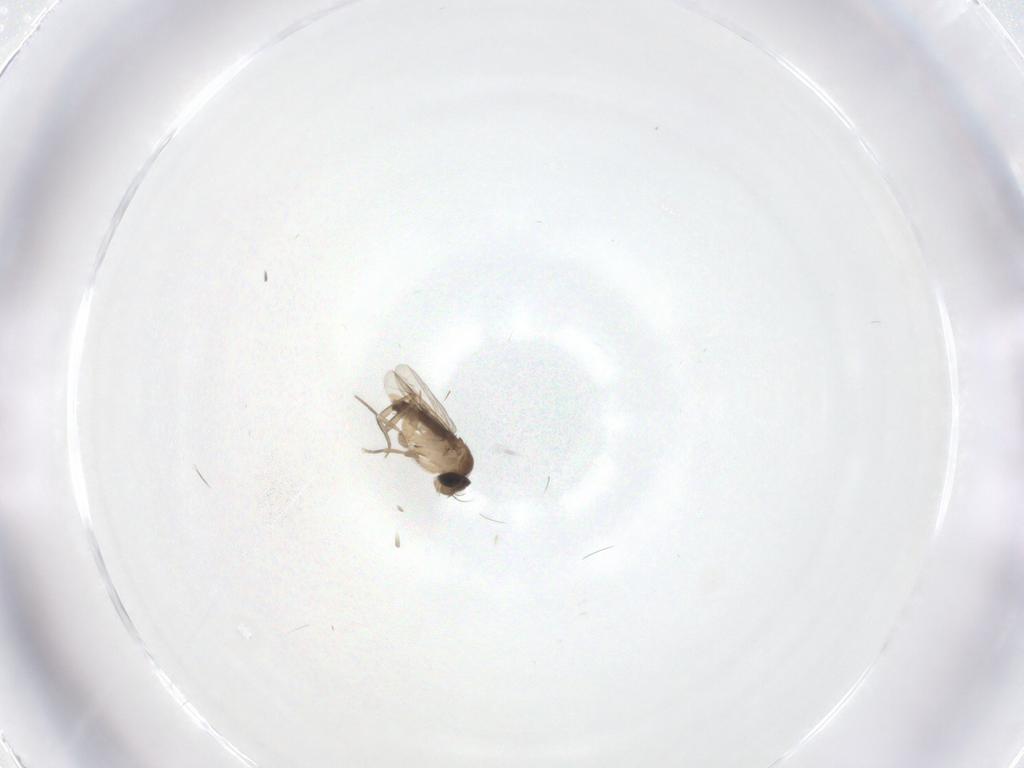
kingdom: Animalia
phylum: Arthropoda
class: Insecta
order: Diptera
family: Phoridae
